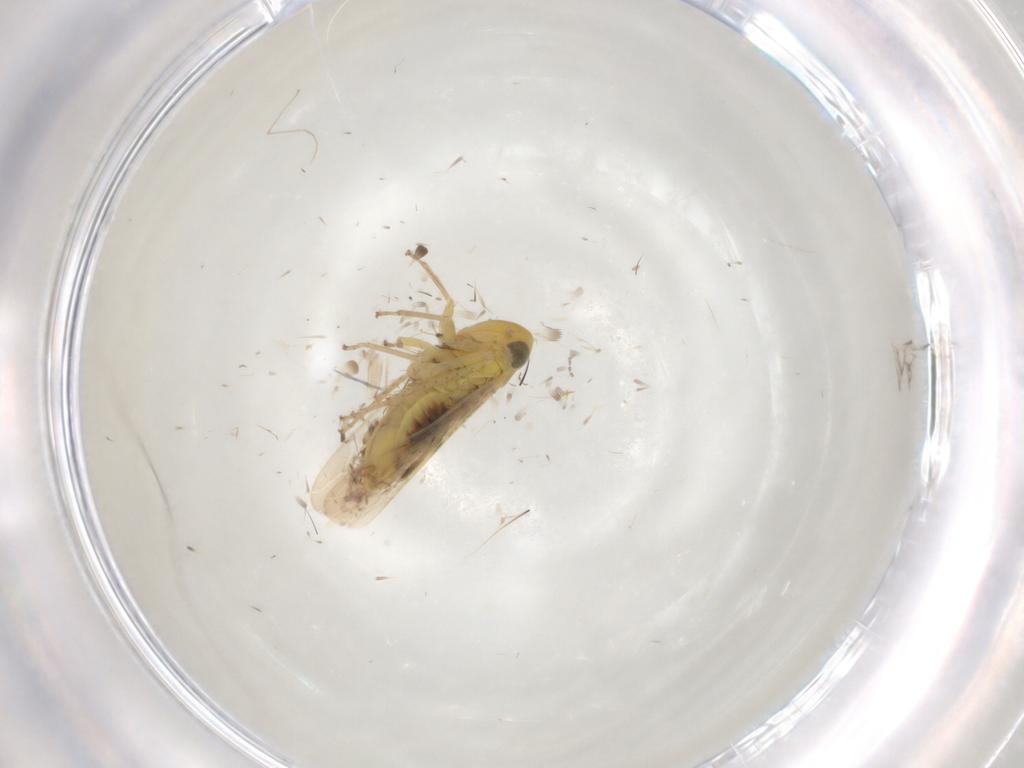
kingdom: Animalia
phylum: Arthropoda
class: Insecta
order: Hemiptera
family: Cicadellidae
